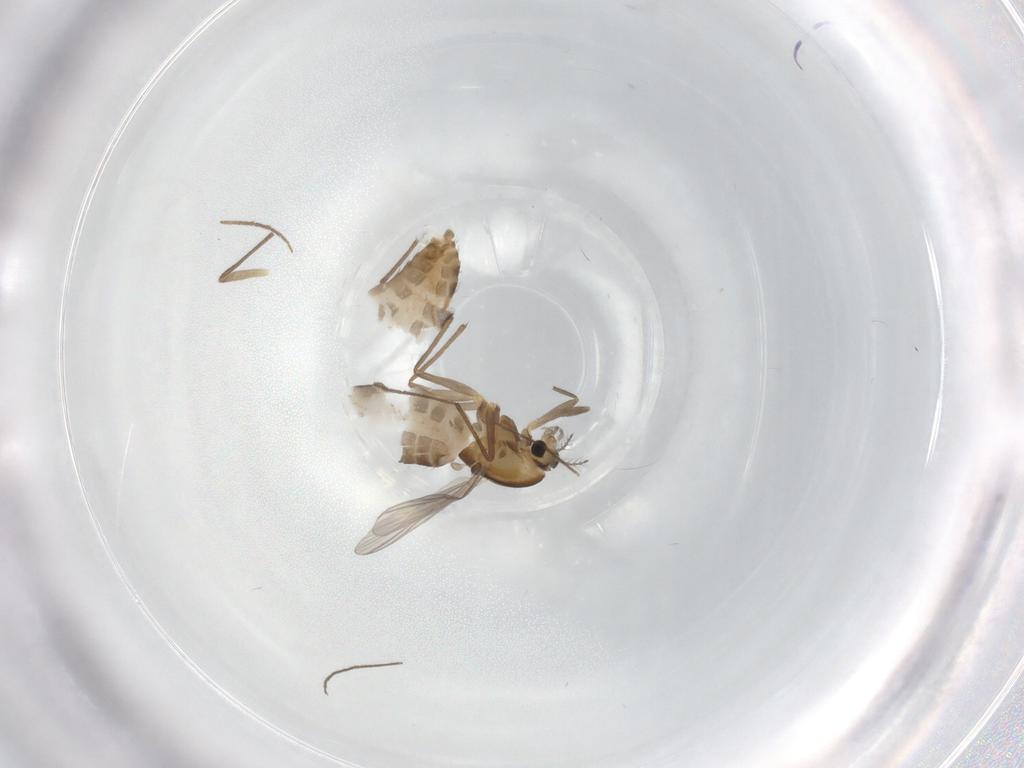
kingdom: Animalia
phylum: Arthropoda
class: Insecta
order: Diptera
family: Chironomidae
